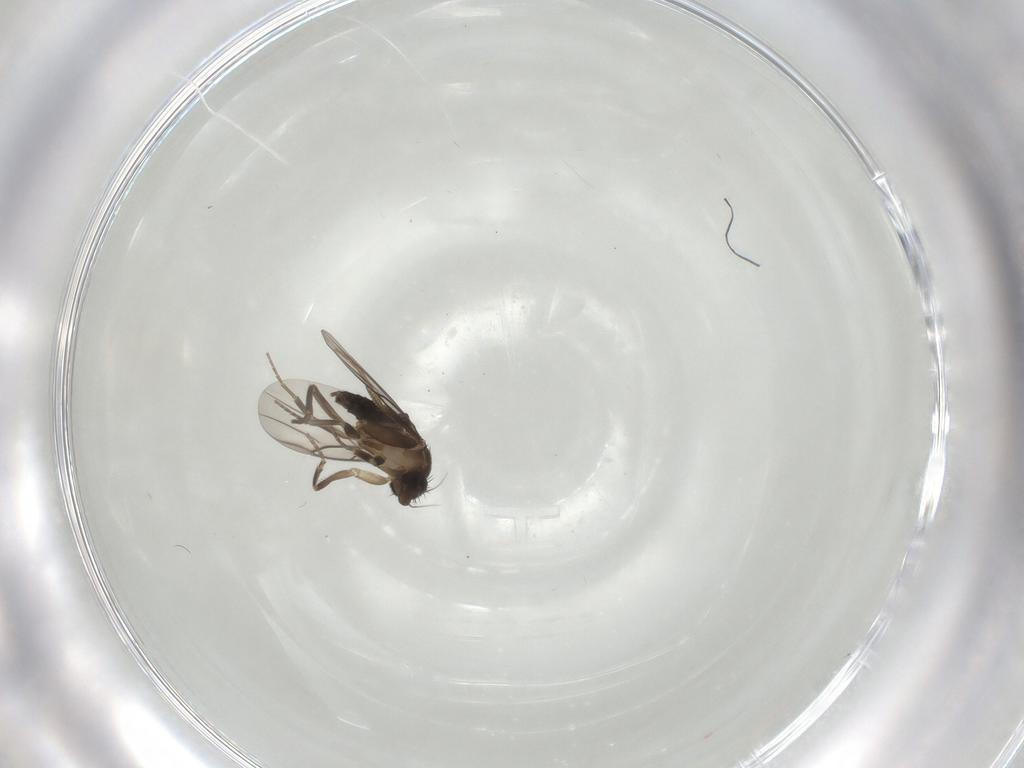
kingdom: Animalia
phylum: Arthropoda
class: Insecta
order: Diptera
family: Phoridae
